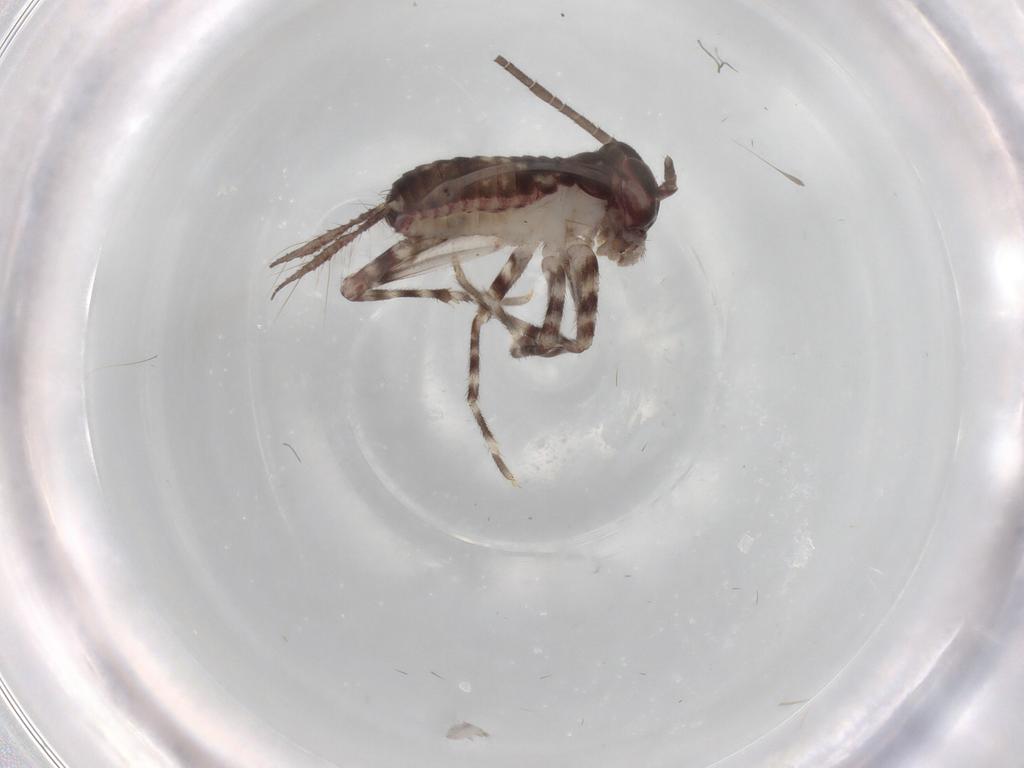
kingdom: Animalia
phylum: Arthropoda
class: Insecta
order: Orthoptera
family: Gryllidae
